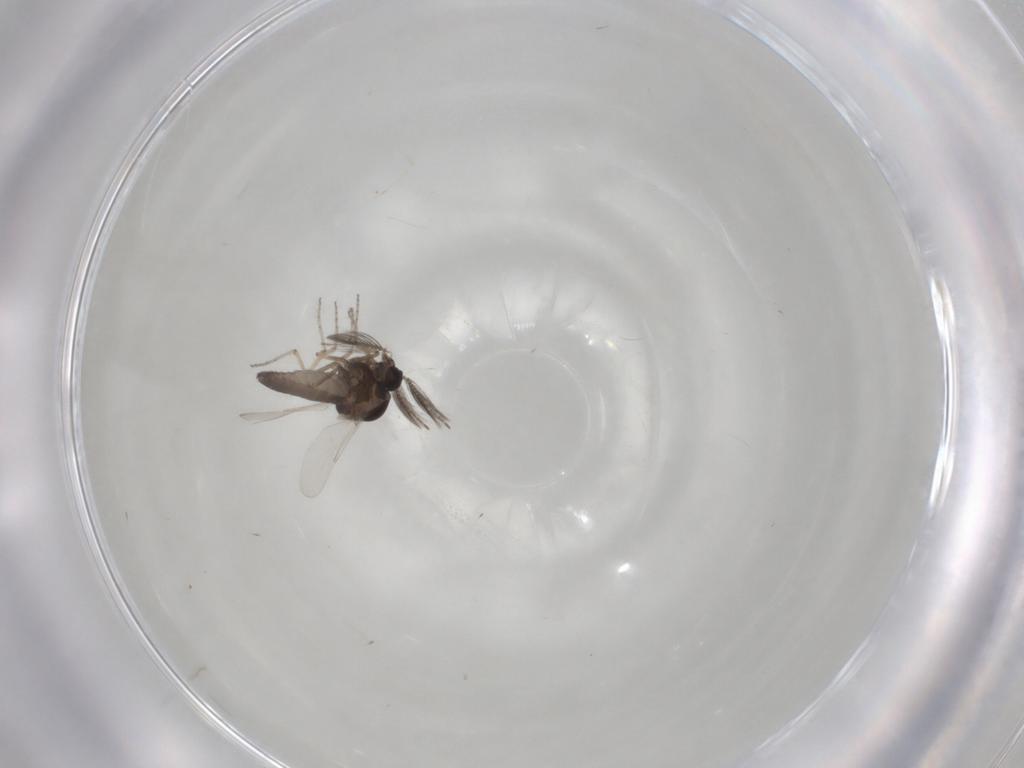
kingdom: Animalia
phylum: Arthropoda
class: Insecta
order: Diptera
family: Ceratopogonidae
